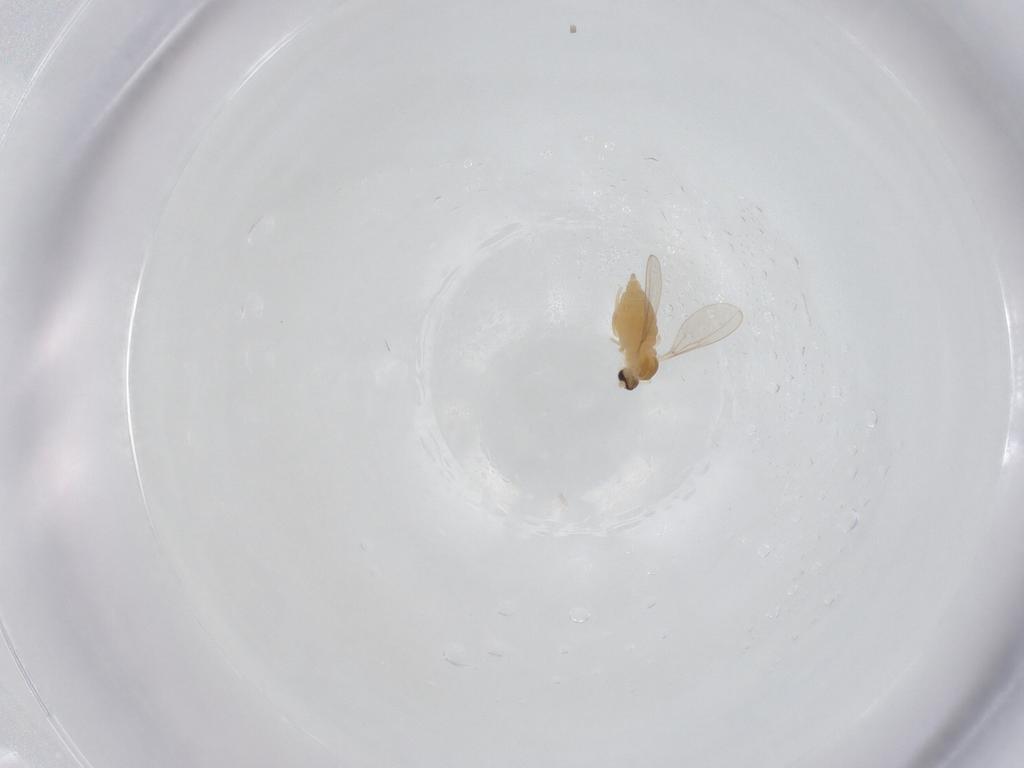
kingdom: Animalia
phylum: Arthropoda
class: Insecta
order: Diptera
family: Cecidomyiidae
